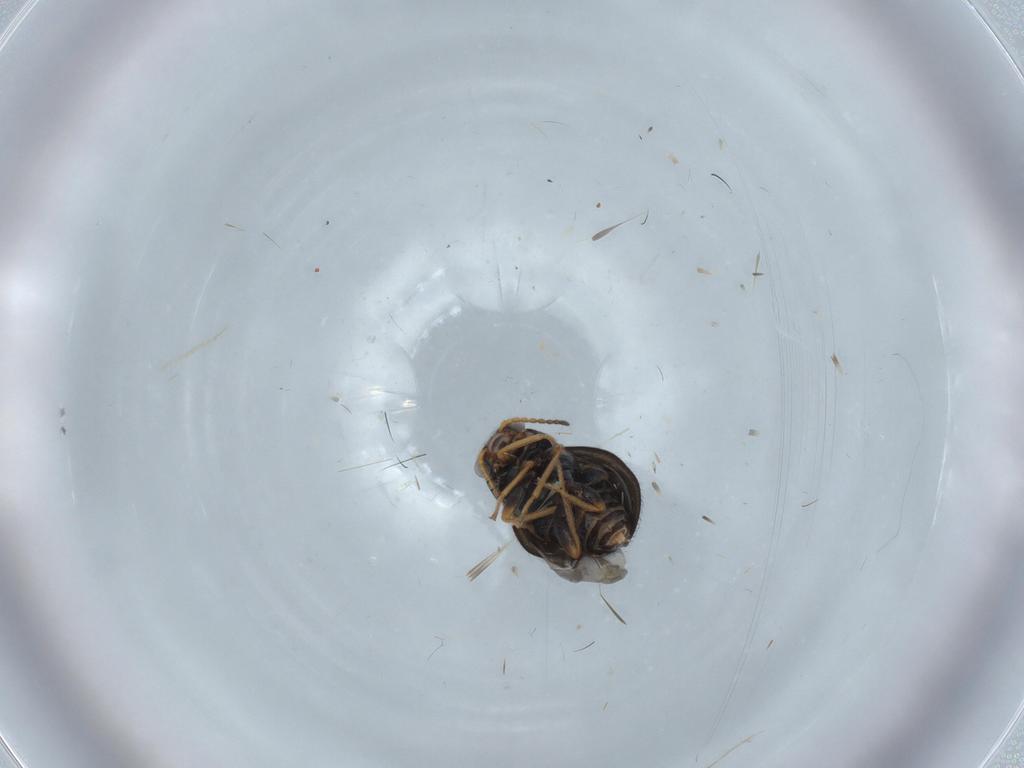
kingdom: Animalia
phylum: Arthropoda
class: Insecta
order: Coleoptera
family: Melyridae
